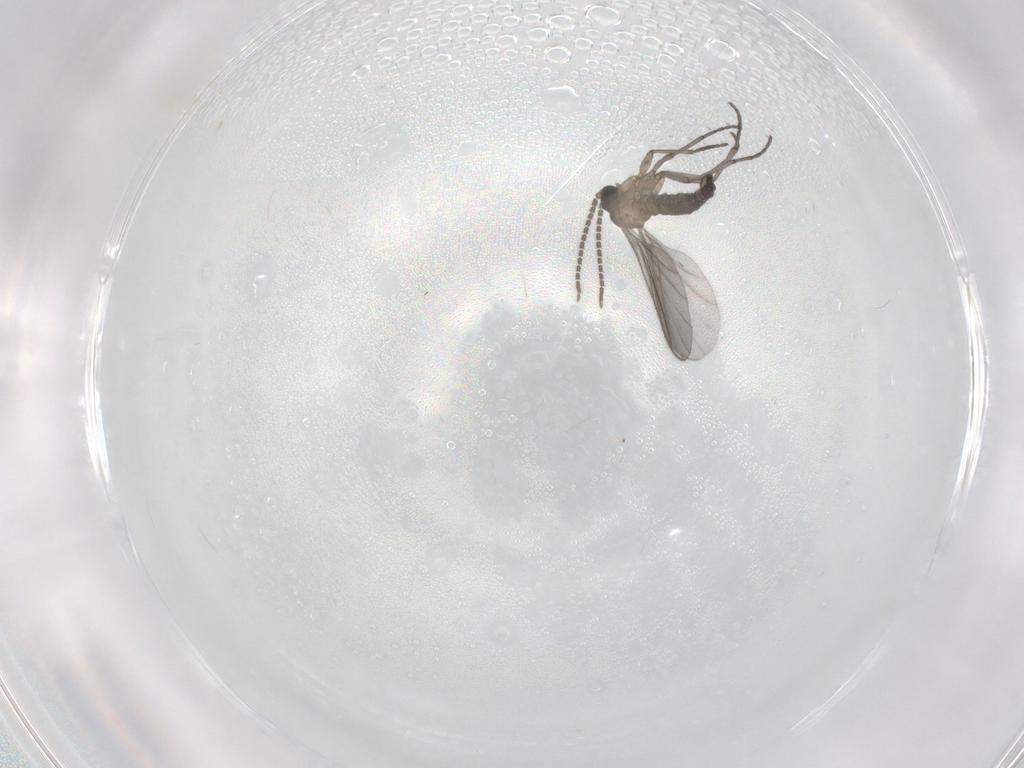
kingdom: Animalia
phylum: Arthropoda
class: Insecta
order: Diptera
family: Sciaridae
